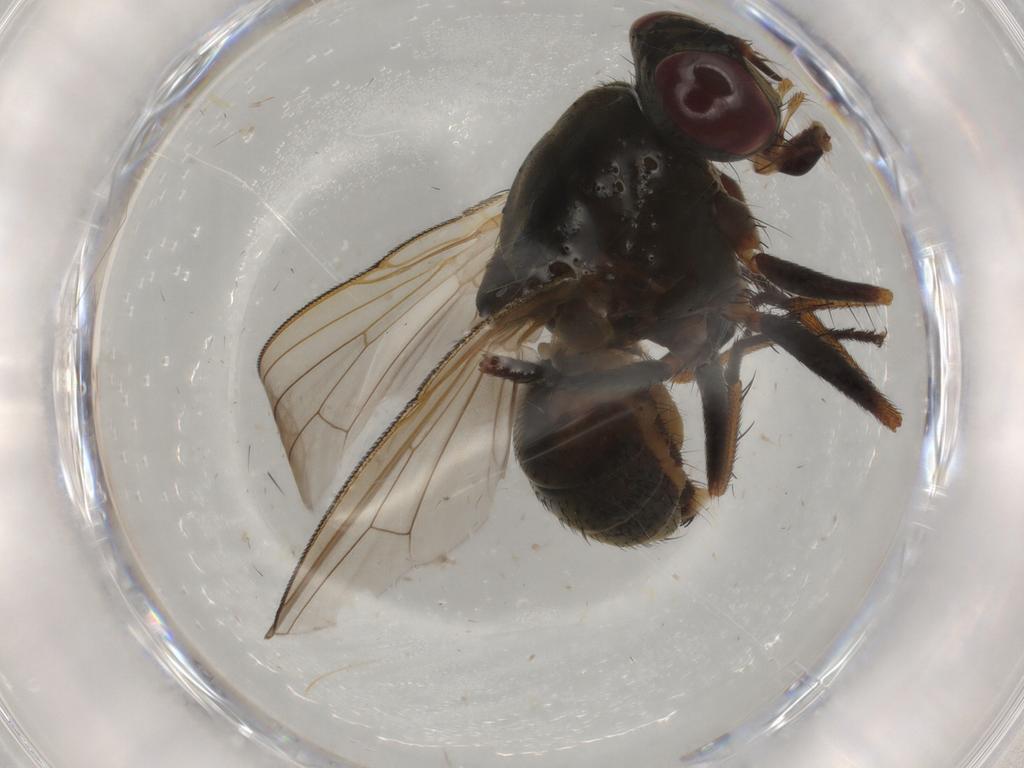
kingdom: Animalia
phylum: Arthropoda
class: Insecta
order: Diptera
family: Muscidae
